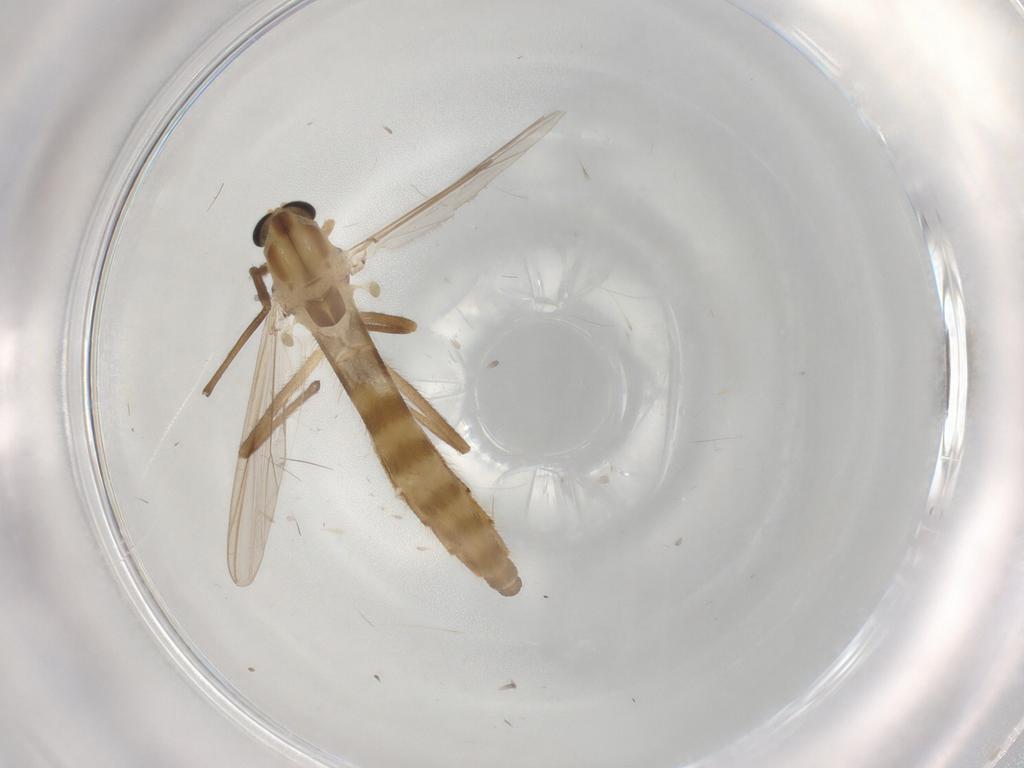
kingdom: Animalia
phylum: Arthropoda
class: Insecta
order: Diptera
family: Chironomidae
